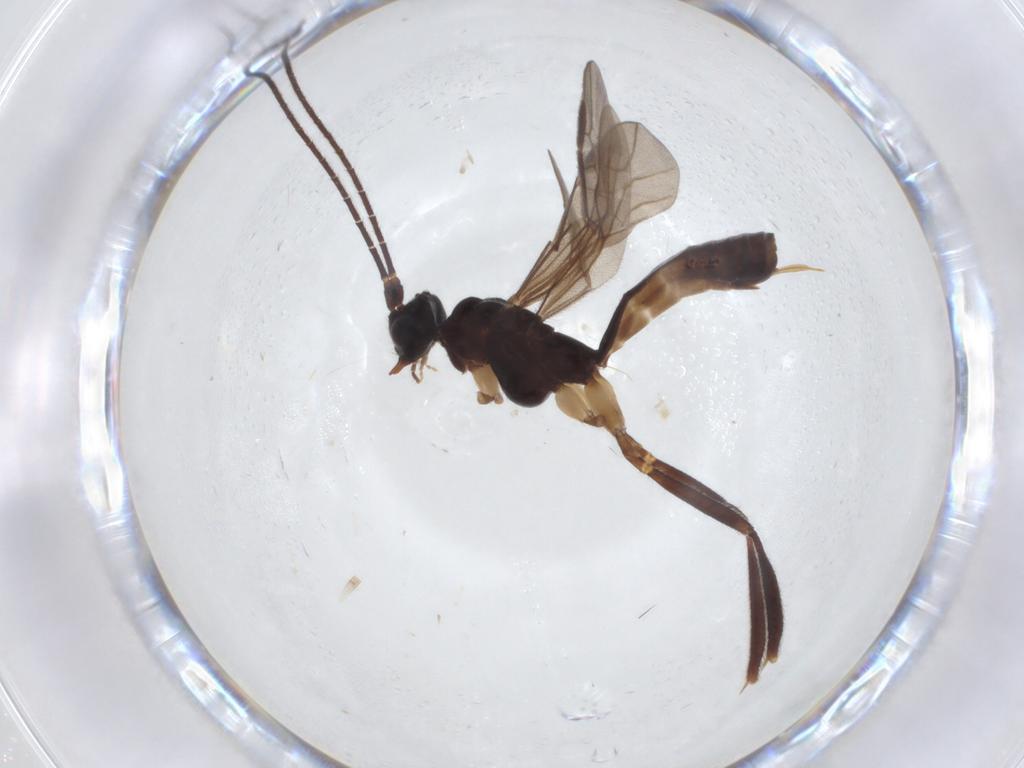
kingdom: Animalia
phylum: Arthropoda
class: Insecta
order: Hymenoptera
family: Braconidae
